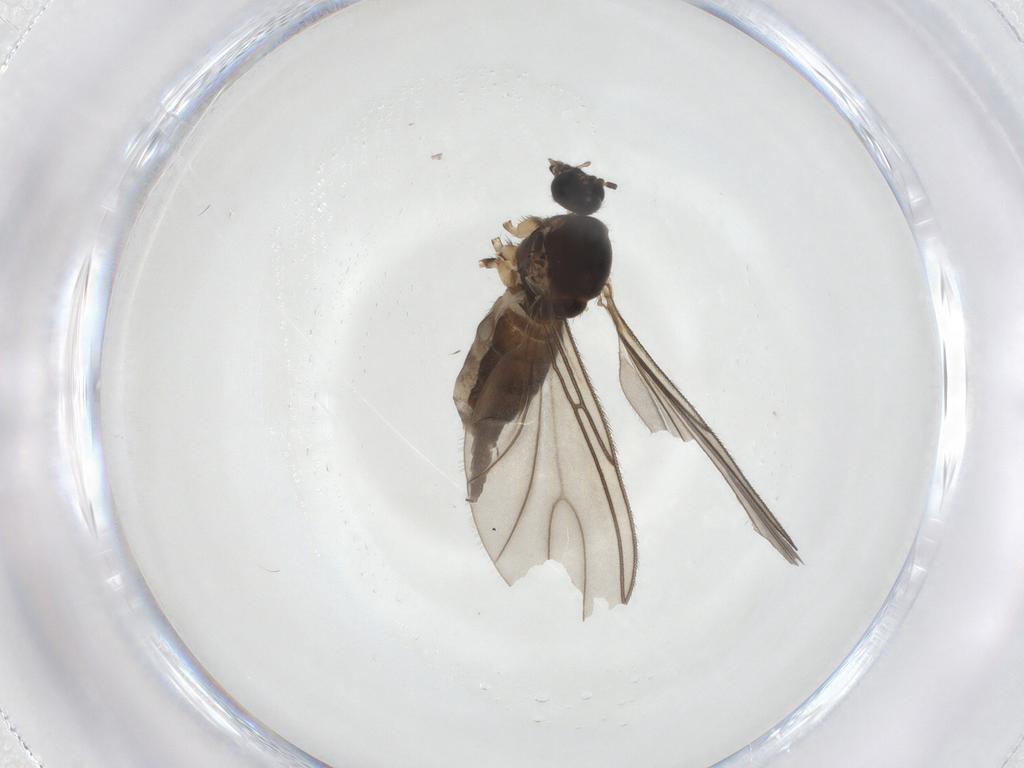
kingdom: Animalia
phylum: Arthropoda
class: Insecta
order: Diptera
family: Sciaridae
